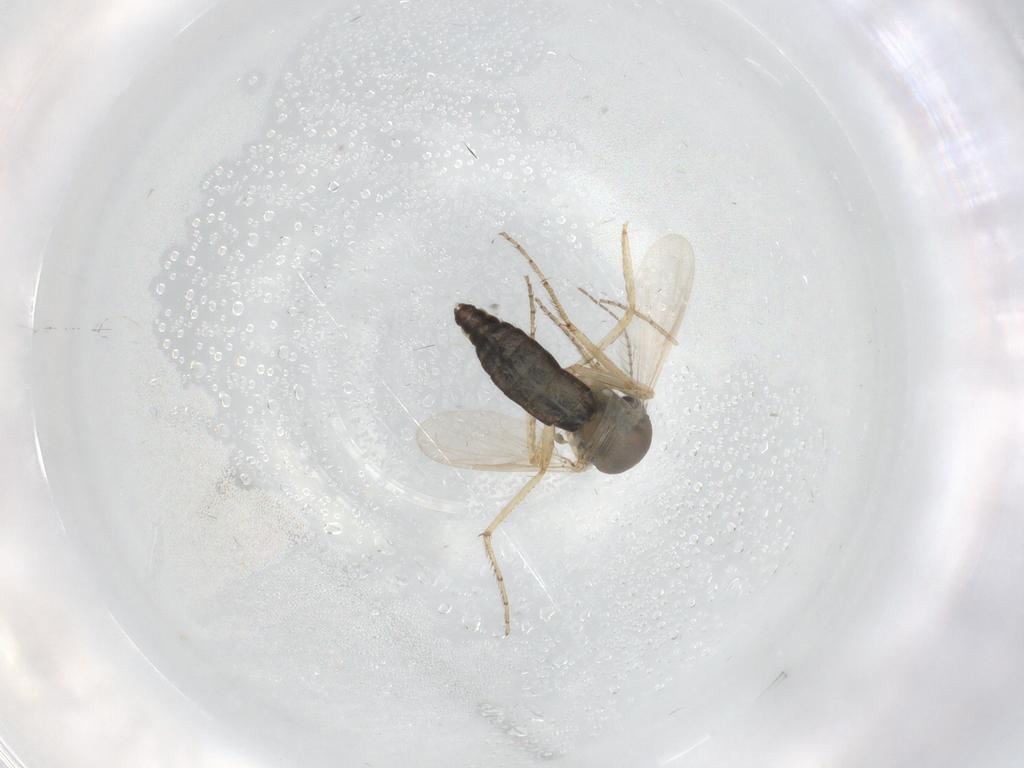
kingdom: Animalia
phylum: Arthropoda
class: Insecta
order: Diptera
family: Ceratopogonidae
